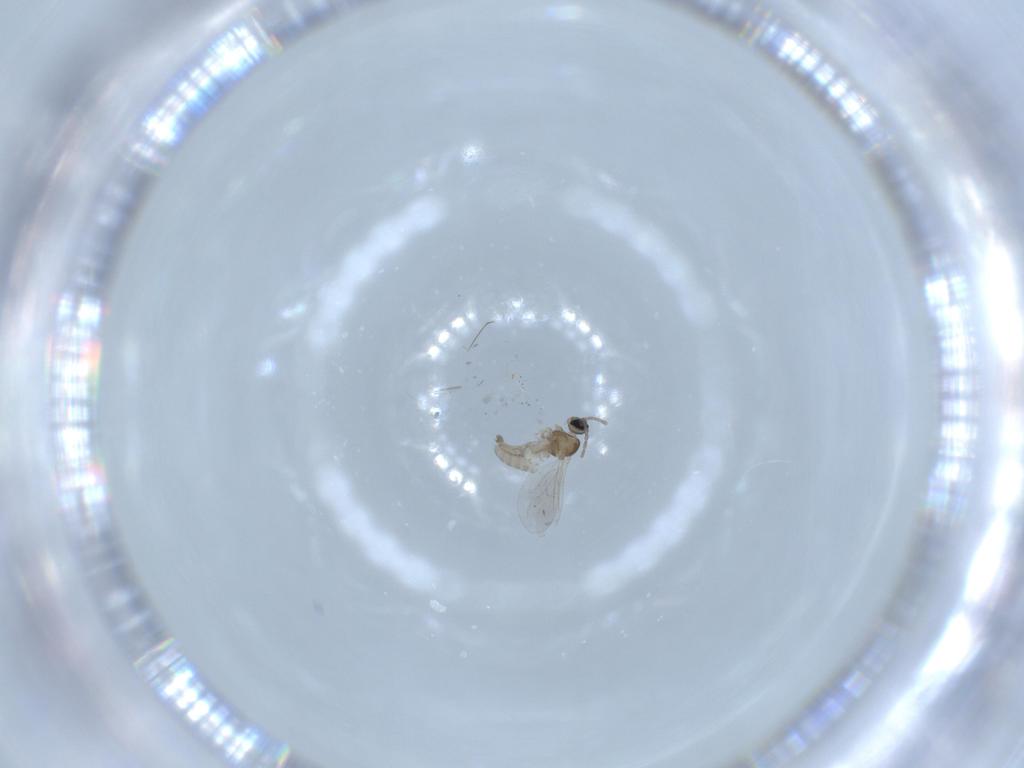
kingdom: Animalia
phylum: Arthropoda
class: Insecta
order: Diptera
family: Cecidomyiidae
